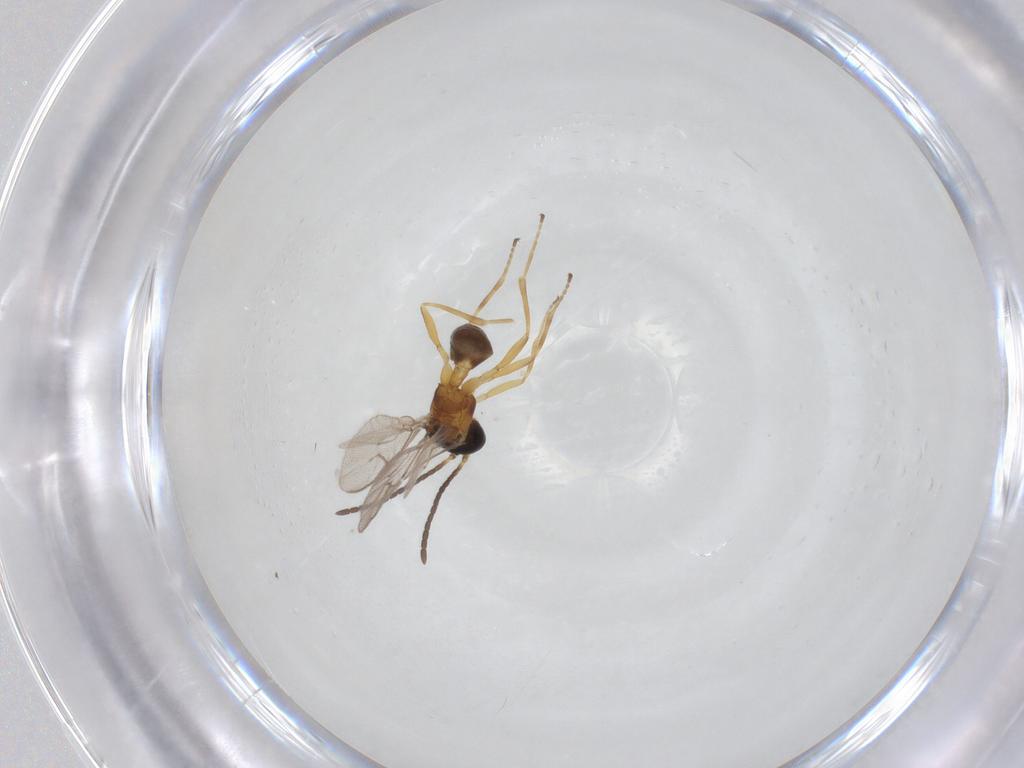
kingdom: Animalia
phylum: Arthropoda
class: Insecta
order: Hymenoptera
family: Braconidae
